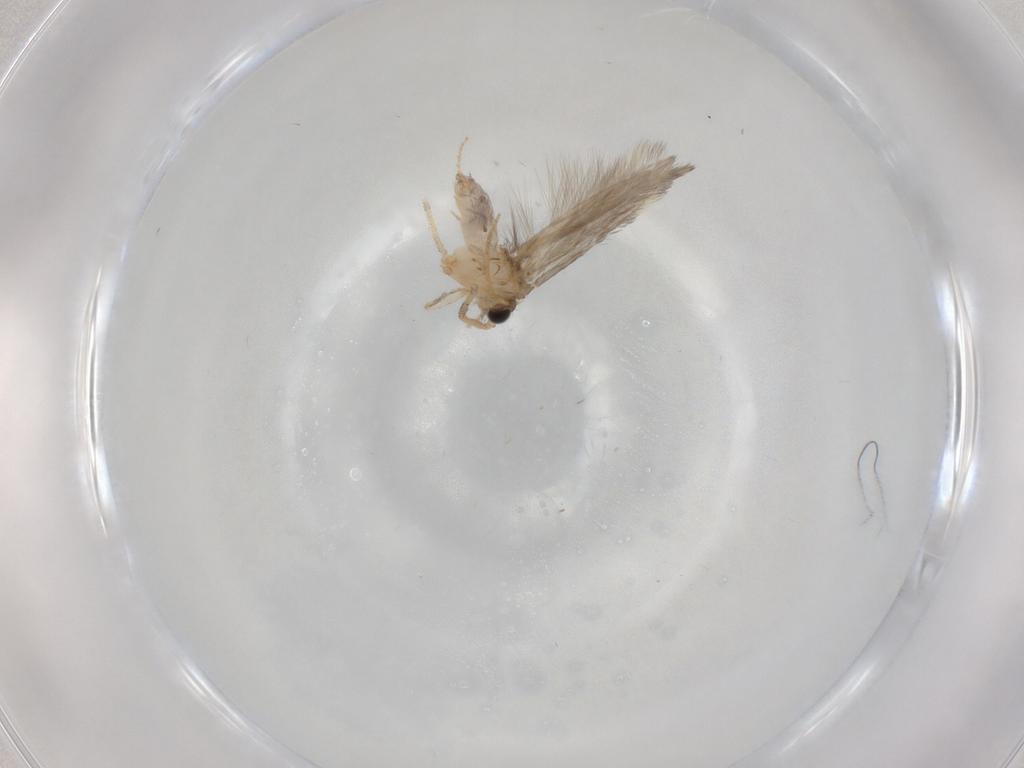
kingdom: Animalia
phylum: Arthropoda
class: Insecta
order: Trichoptera
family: Hydroptilidae
